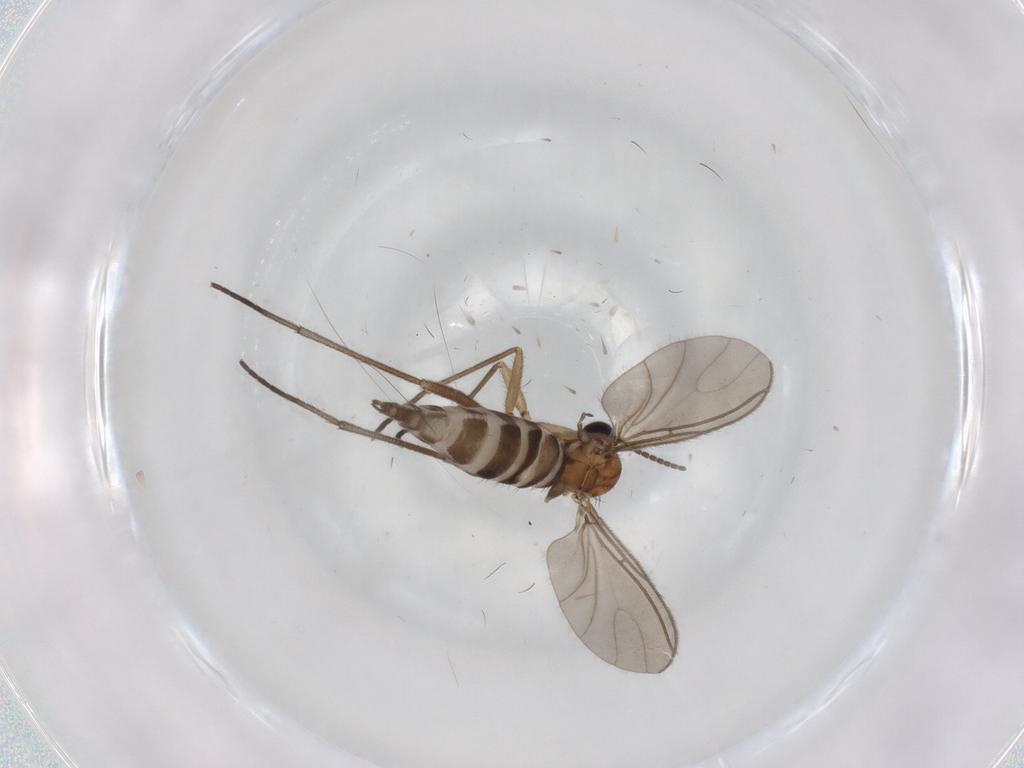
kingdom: Animalia
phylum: Arthropoda
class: Insecta
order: Diptera
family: Sciaridae
